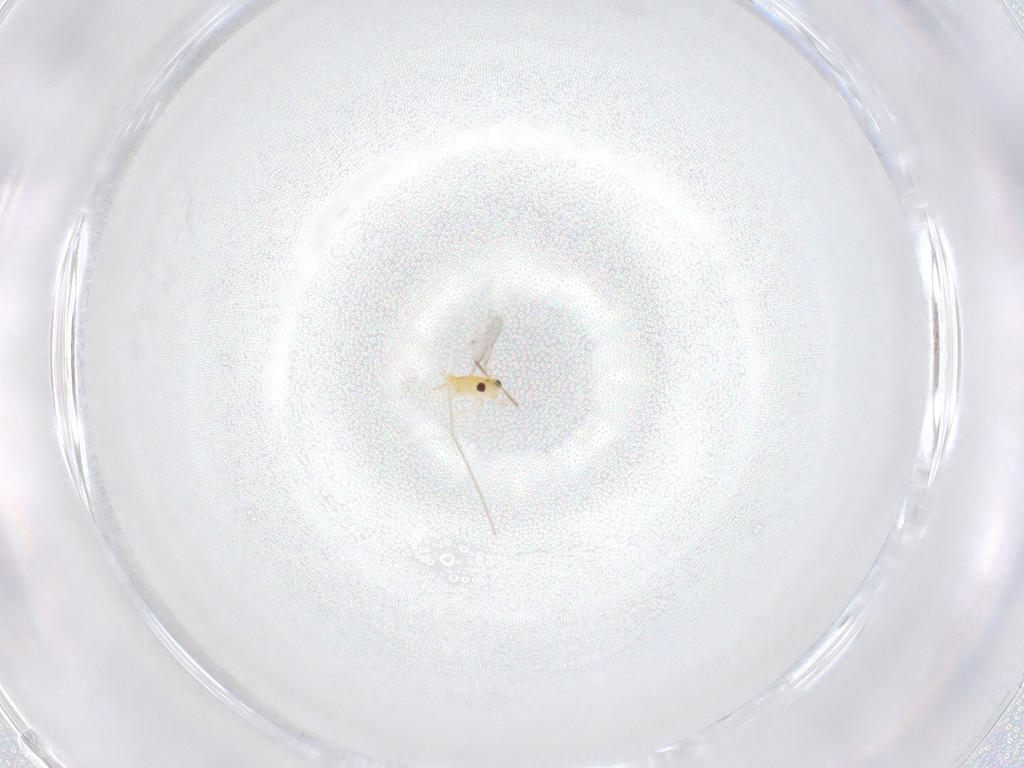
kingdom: Animalia
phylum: Arthropoda
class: Insecta
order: Hymenoptera
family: Aphelinidae
